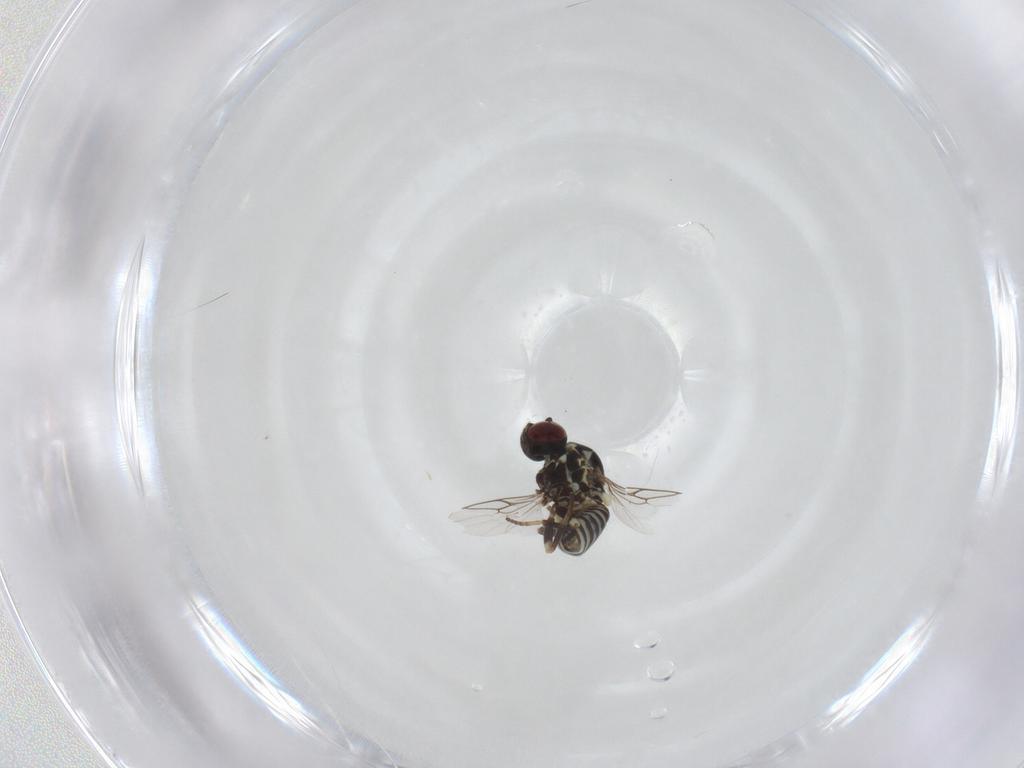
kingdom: Animalia
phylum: Arthropoda
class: Insecta
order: Diptera
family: Mythicomyiidae
